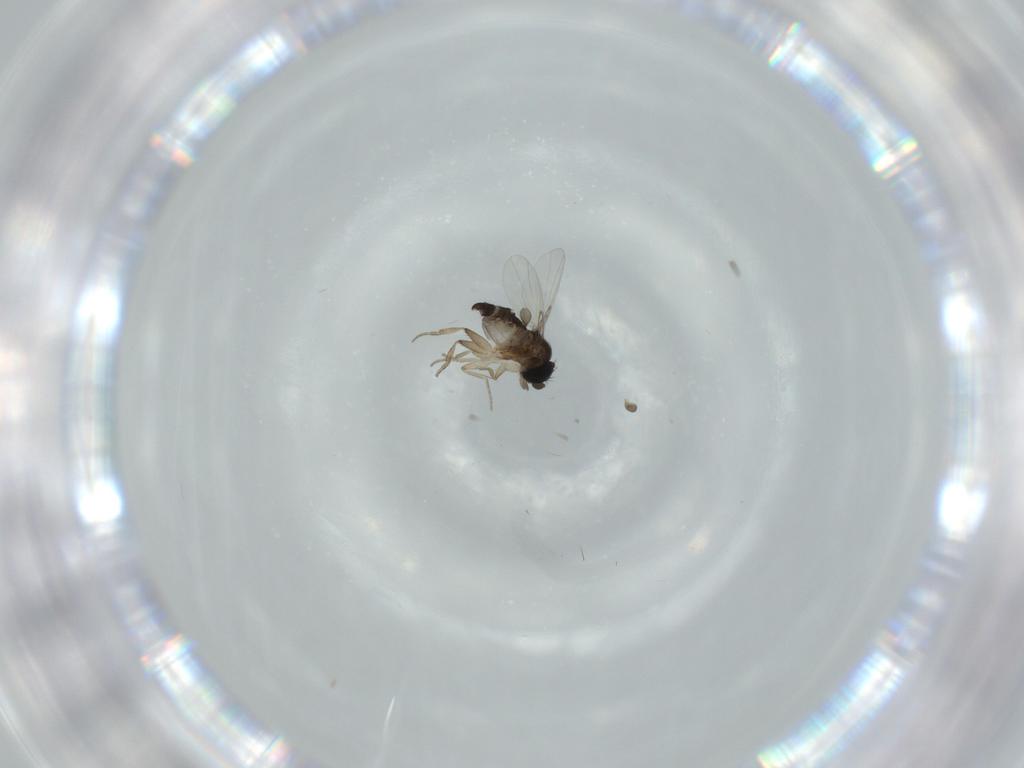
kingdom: Animalia
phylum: Arthropoda
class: Insecta
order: Diptera
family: Phoridae
